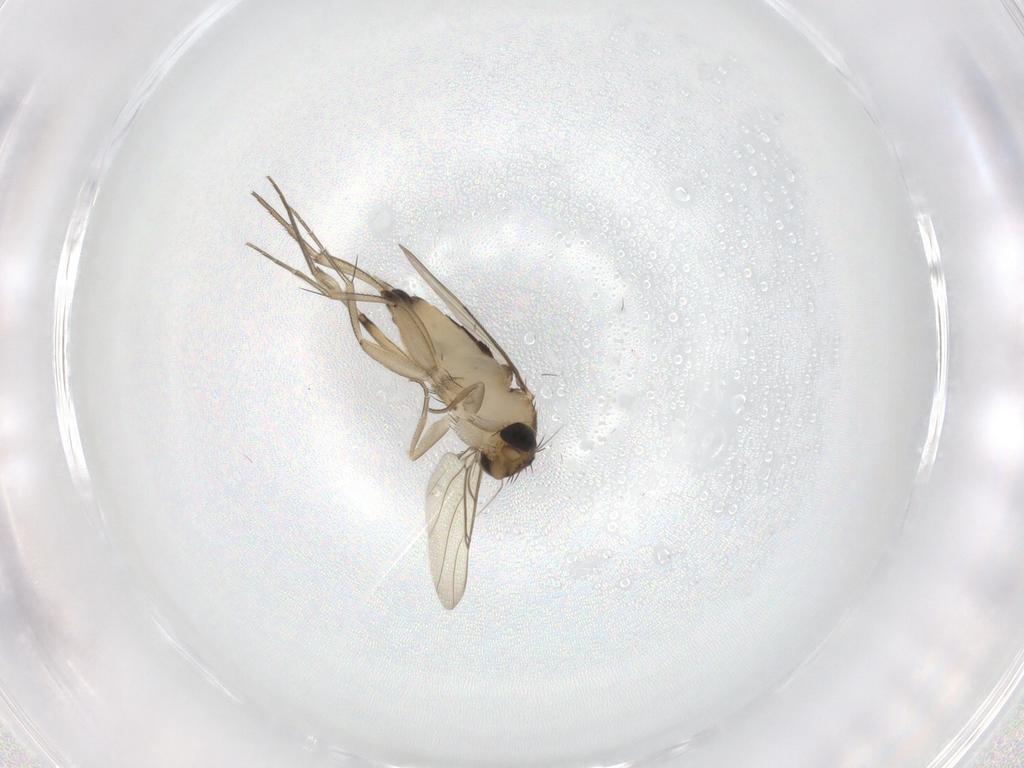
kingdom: Animalia
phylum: Arthropoda
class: Insecta
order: Diptera
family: Phoridae
